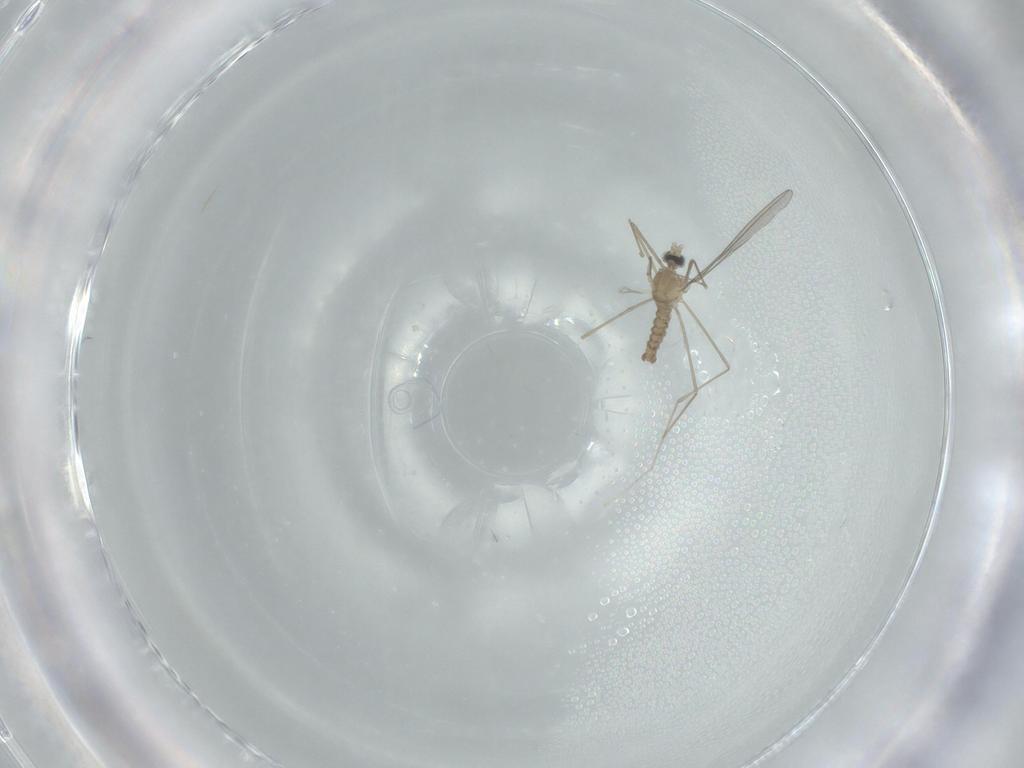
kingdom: Animalia
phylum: Arthropoda
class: Insecta
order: Diptera
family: Cecidomyiidae
